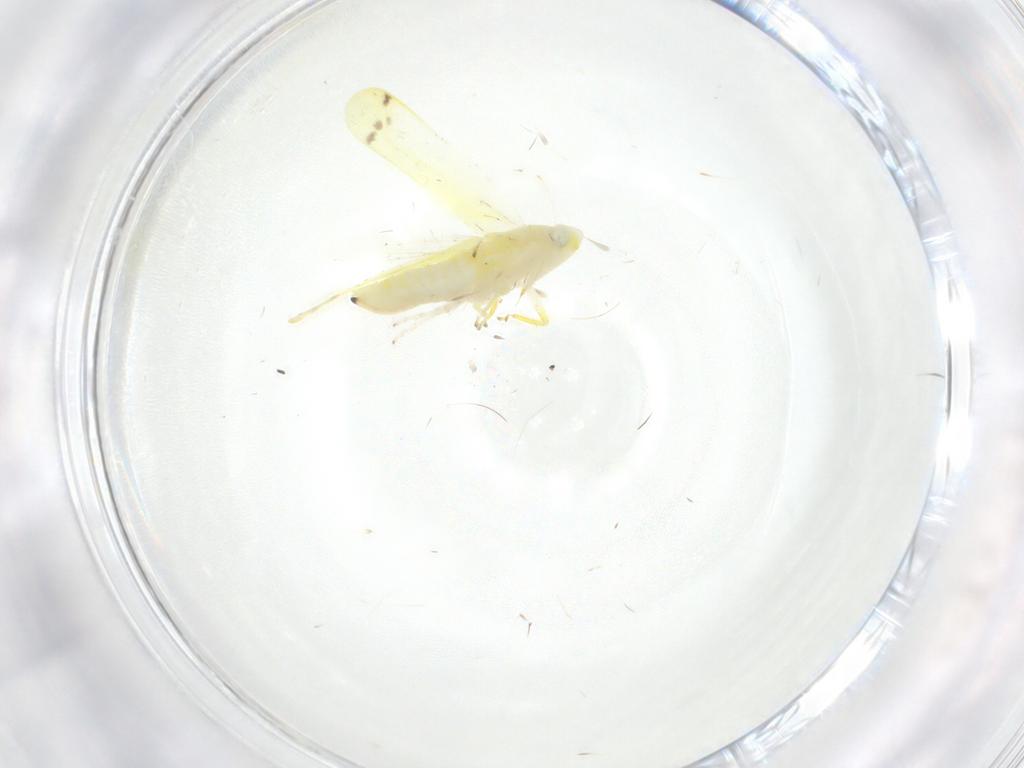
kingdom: Animalia
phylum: Arthropoda
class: Insecta
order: Hemiptera
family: Cicadellidae
